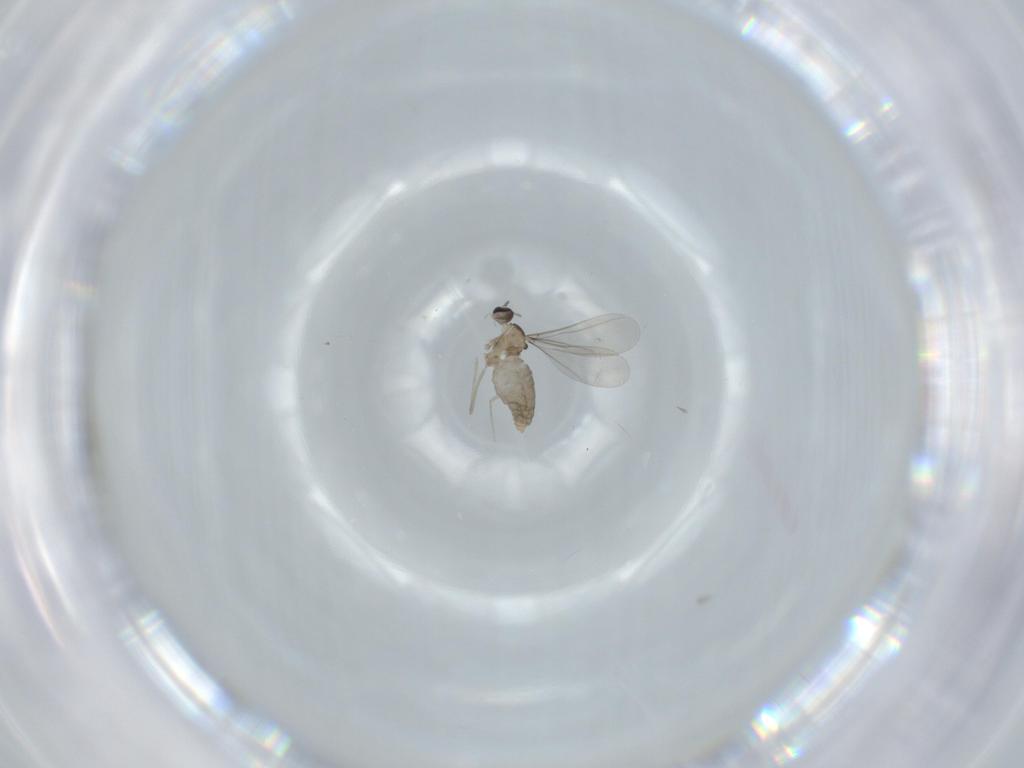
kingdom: Animalia
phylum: Arthropoda
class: Insecta
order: Diptera
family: Cecidomyiidae
